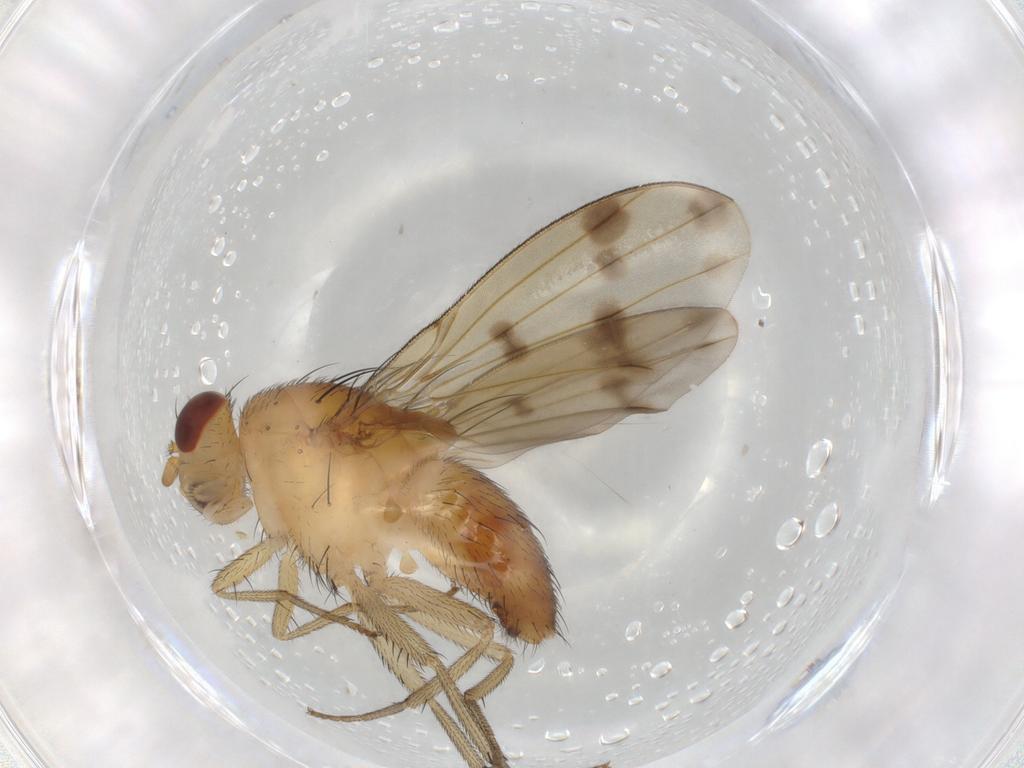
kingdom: Animalia
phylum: Arthropoda
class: Insecta
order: Diptera
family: Lauxaniidae
